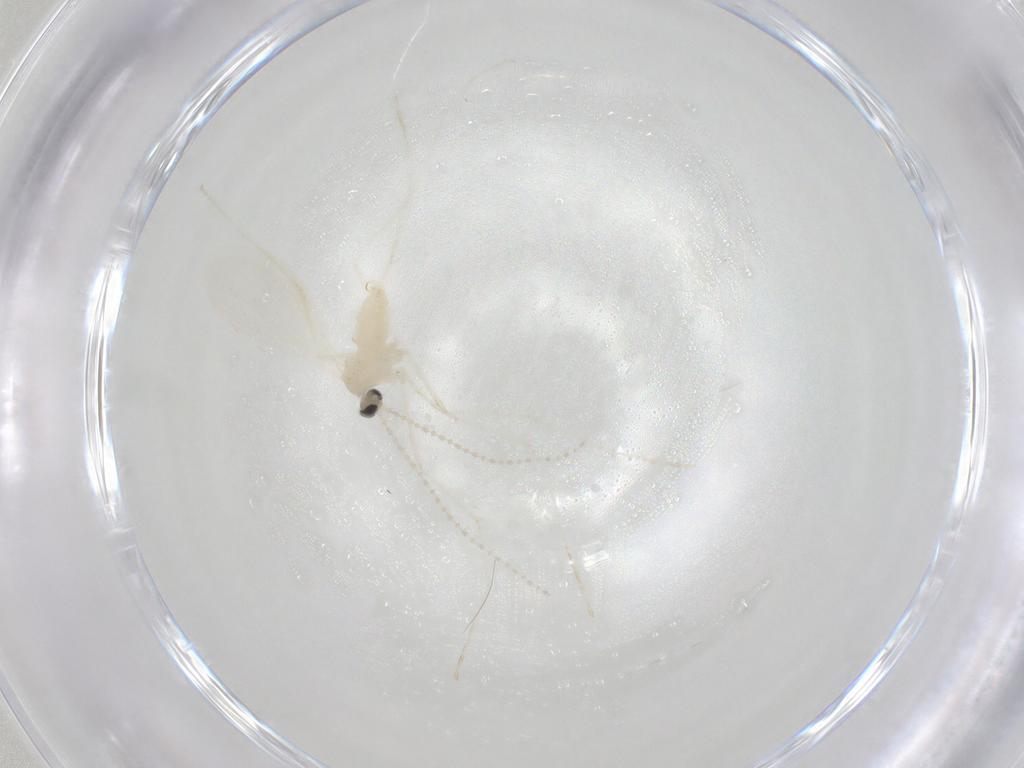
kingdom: Animalia
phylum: Arthropoda
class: Insecta
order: Diptera
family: Cecidomyiidae
